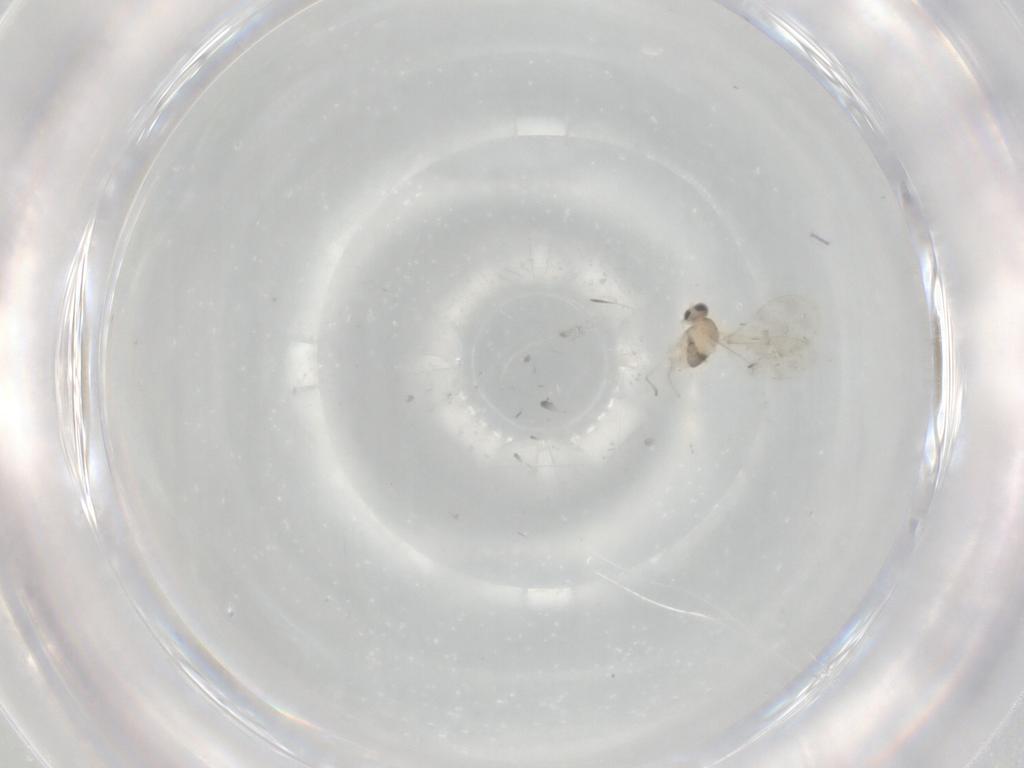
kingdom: Animalia
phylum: Arthropoda
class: Insecta
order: Diptera
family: Cecidomyiidae
